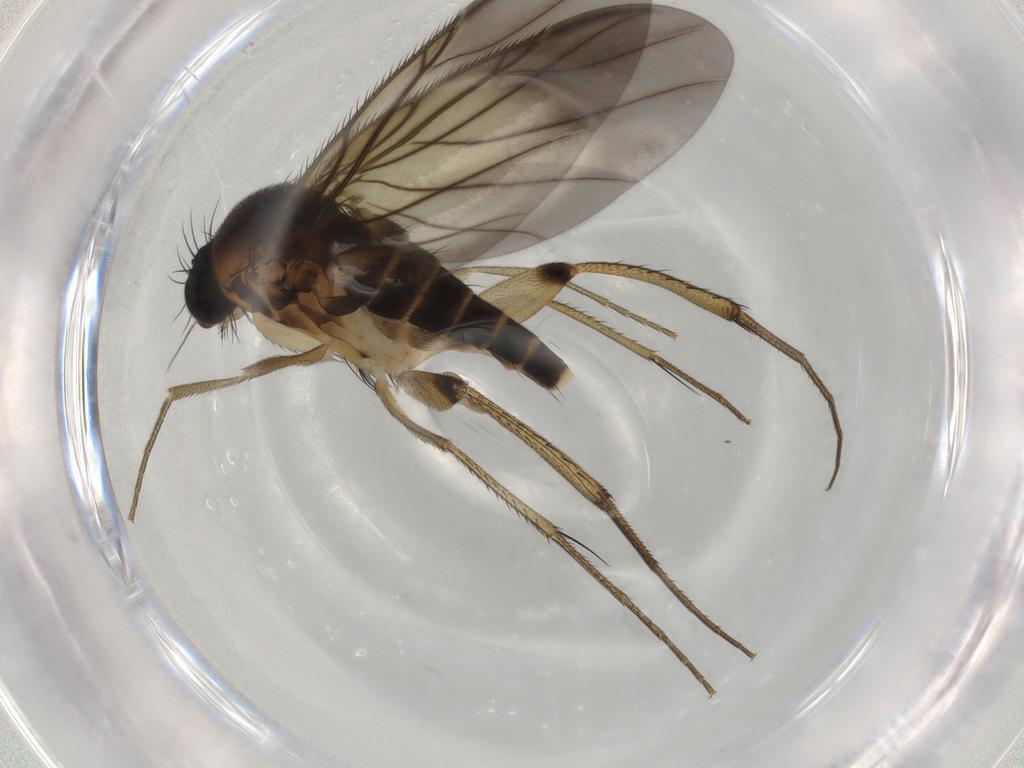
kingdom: Animalia
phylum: Arthropoda
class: Insecta
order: Diptera
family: Phoridae
